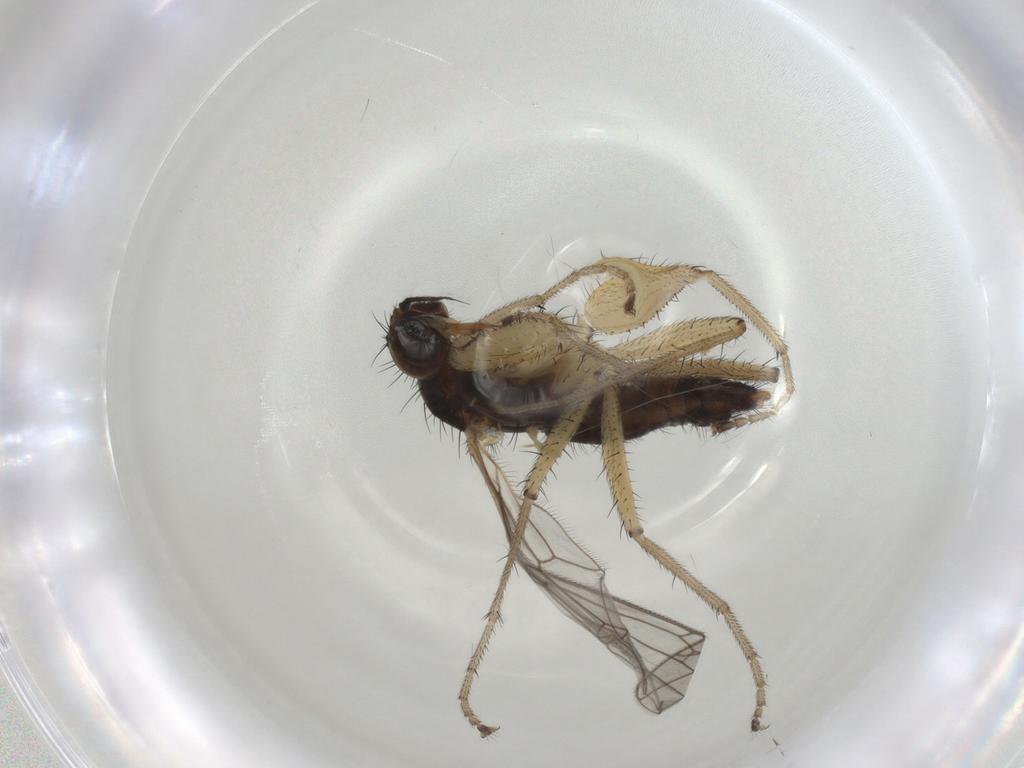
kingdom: Animalia
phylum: Arthropoda
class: Insecta
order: Diptera
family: Chironomidae
